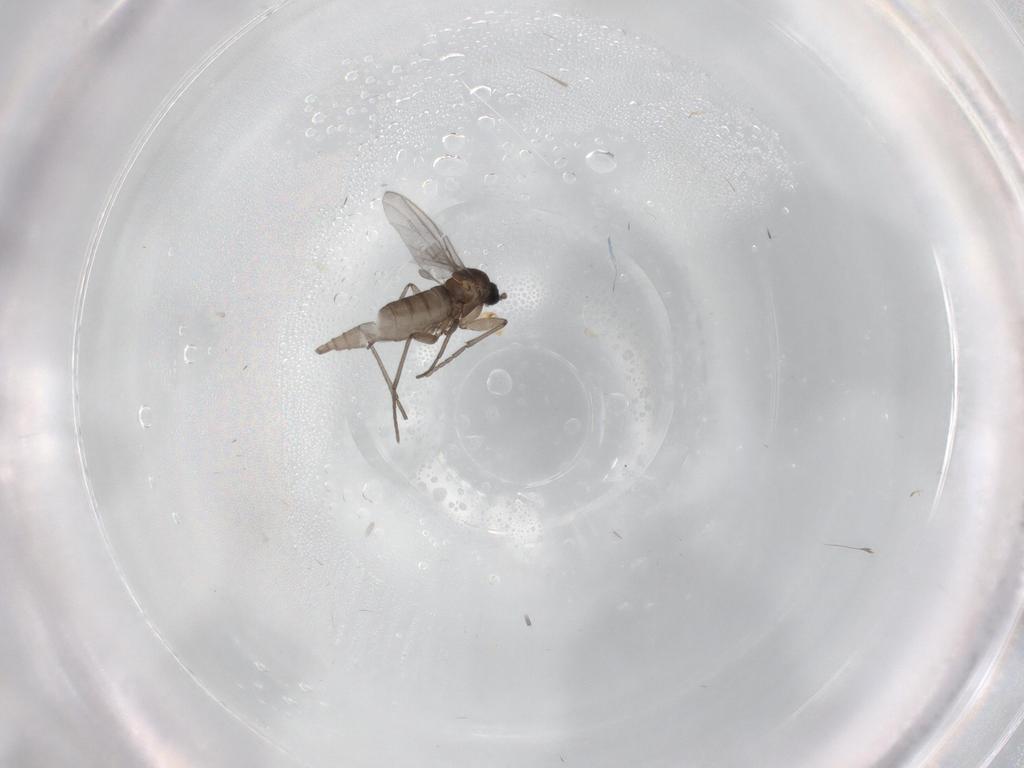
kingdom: Animalia
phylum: Arthropoda
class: Insecta
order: Diptera
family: Sciaridae
